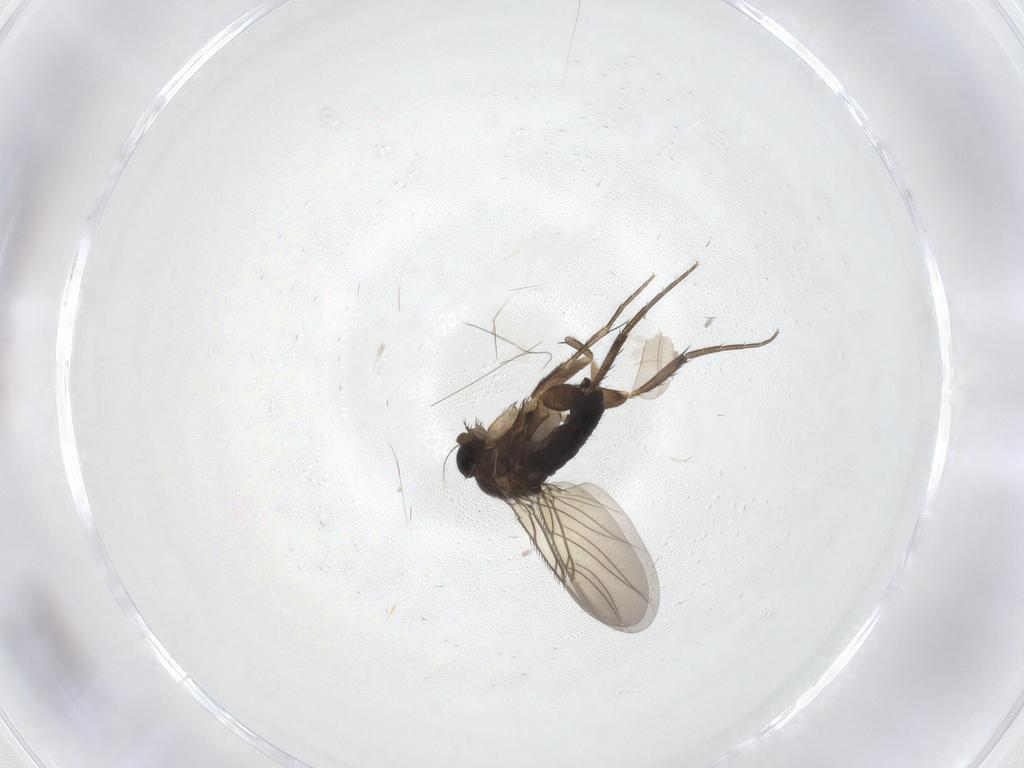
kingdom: Animalia
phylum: Arthropoda
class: Insecta
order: Diptera
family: Phoridae
